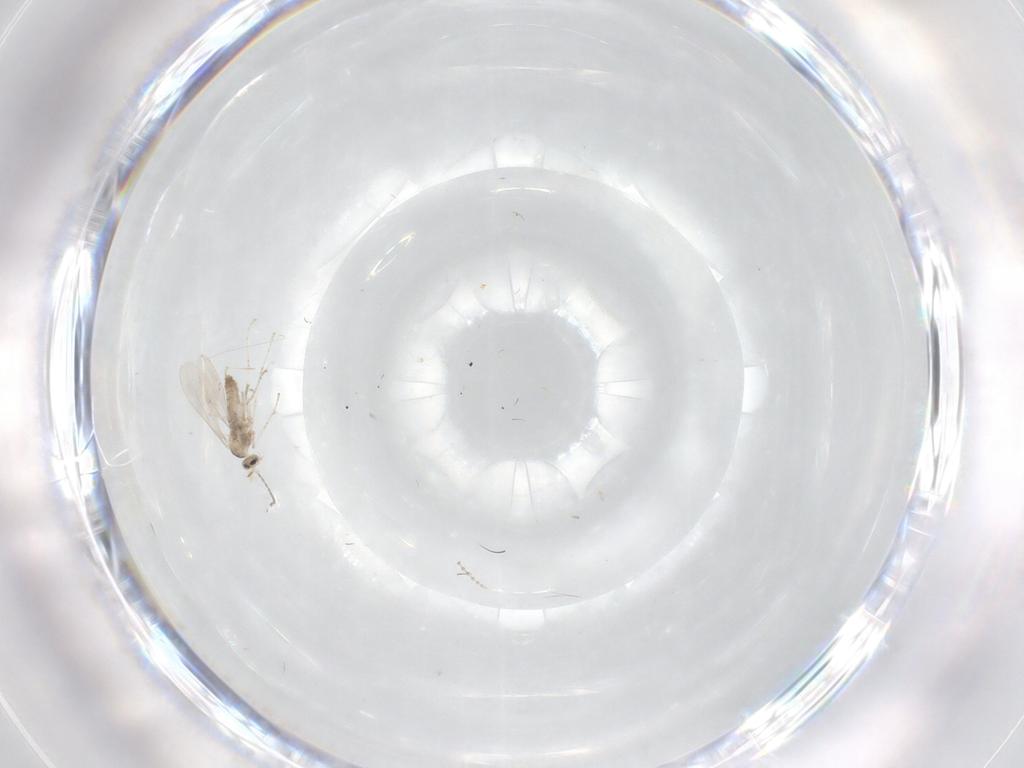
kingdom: Animalia
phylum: Arthropoda
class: Insecta
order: Diptera
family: Cecidomyiidae
